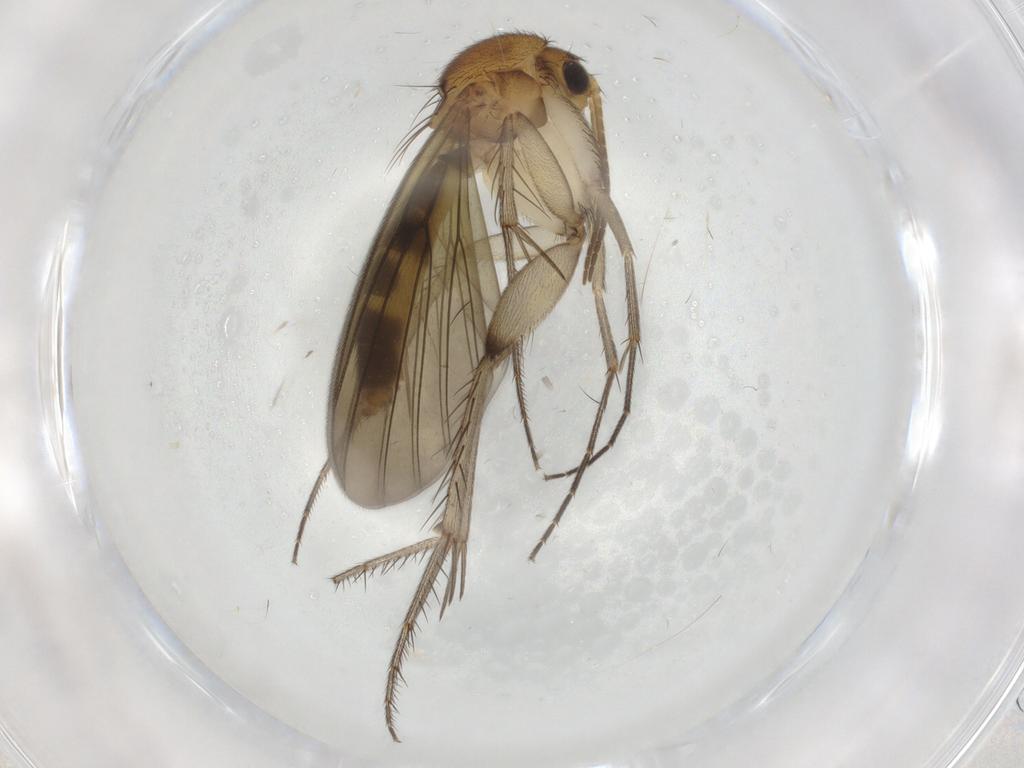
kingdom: Animalia
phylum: Arthropoda
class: Insecta
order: Diptera
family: Mycetophilidae
